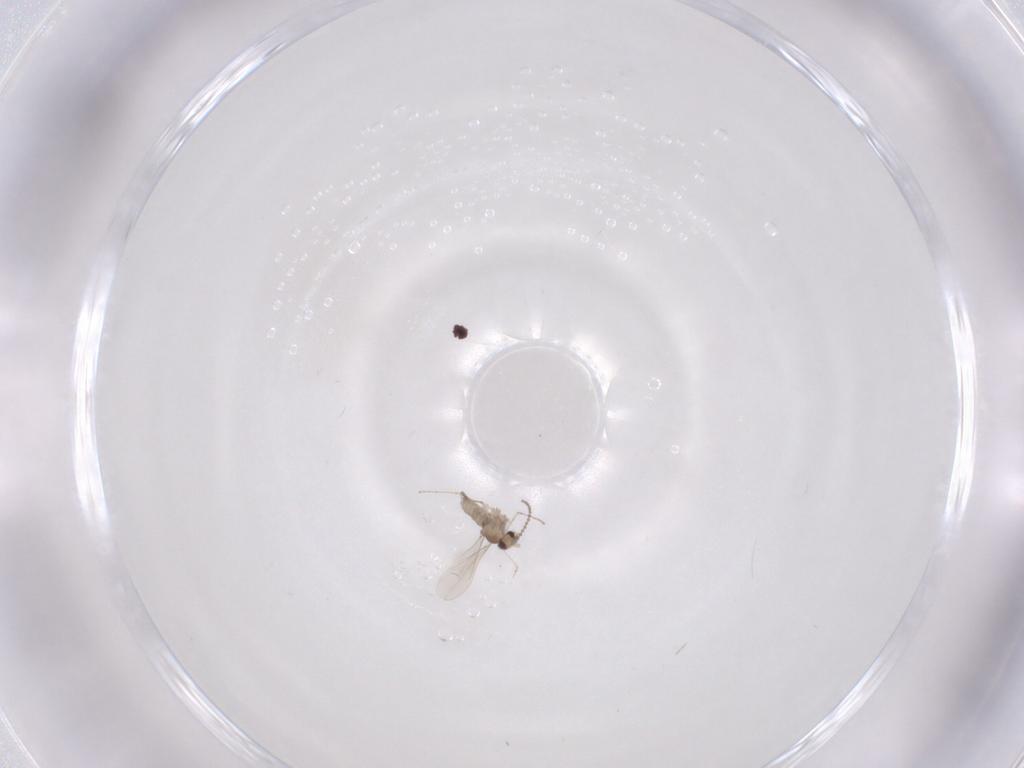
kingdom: Animalia
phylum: Arthropoda
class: Insecta
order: Diptera
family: Cecidomyiidae
